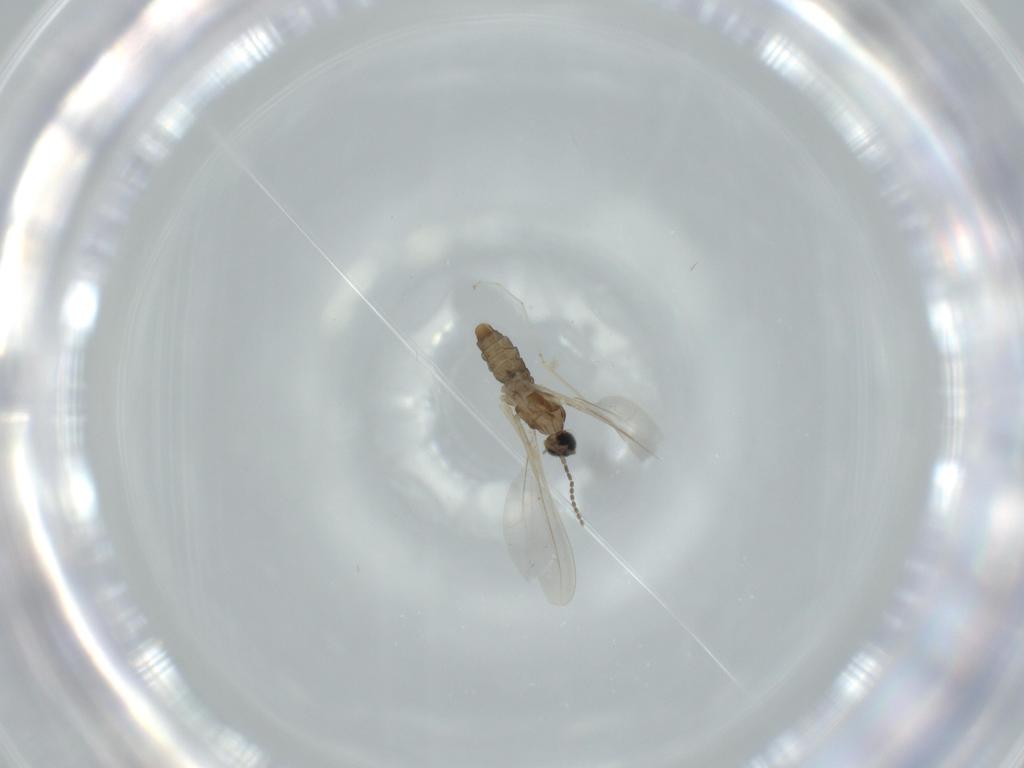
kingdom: Animalia
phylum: Arthropoda
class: Insecta
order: Diptera
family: Cecidomyiidae
